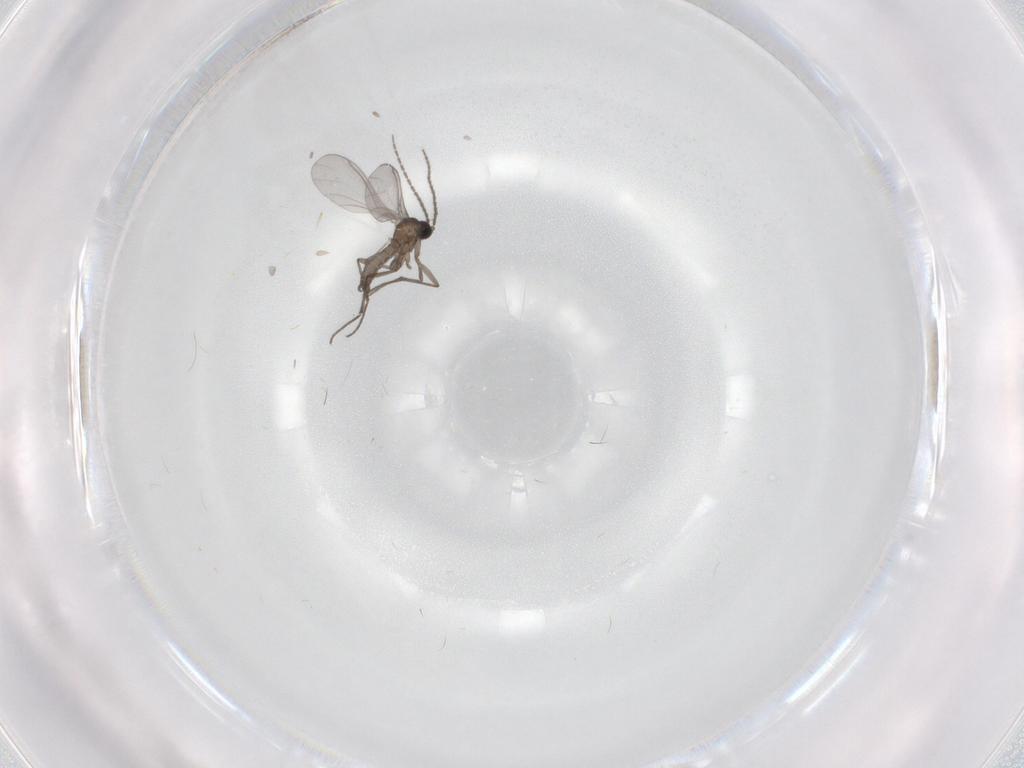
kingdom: Animalia
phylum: Arthropoda
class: Insecta
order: Diptera
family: Sciaridae
